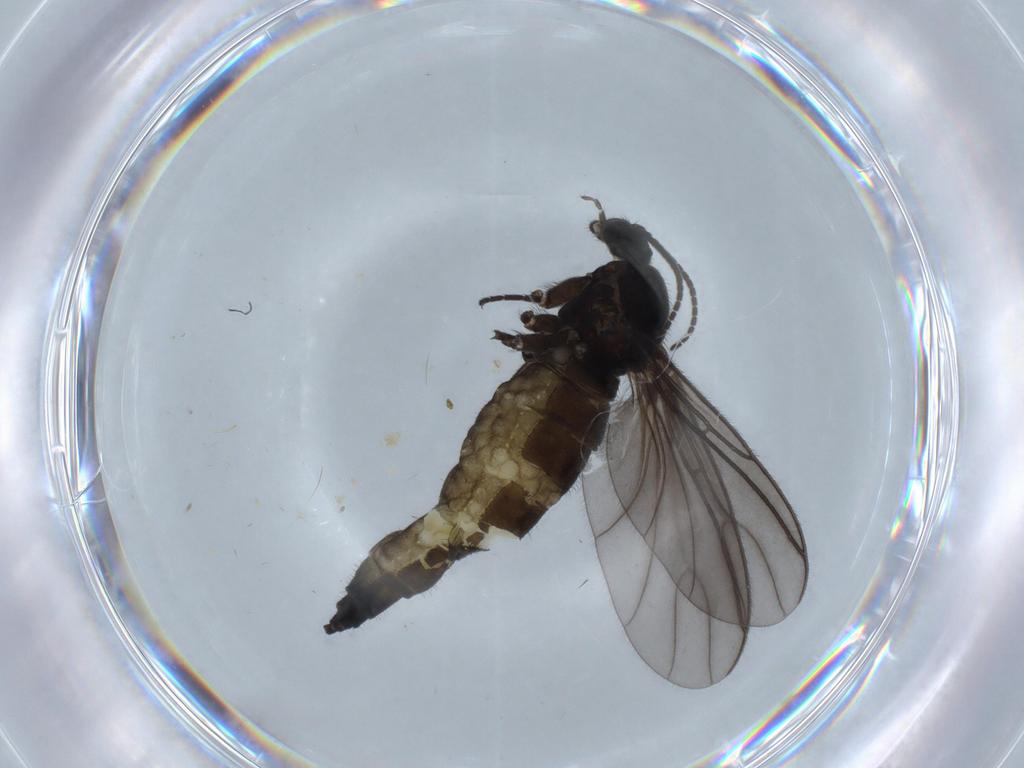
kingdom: Animalia
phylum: Arthropoda
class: Insecta
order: Diptera
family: Sciaridae
